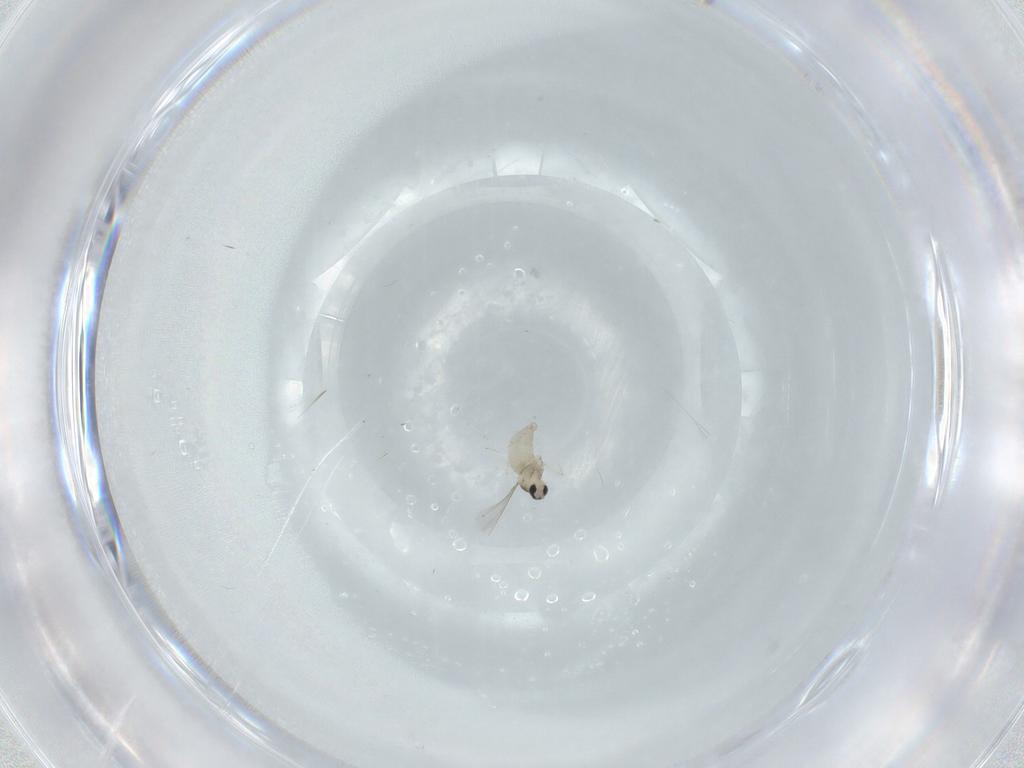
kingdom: Animalia
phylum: Arthropoda
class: Insecta
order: Diptera
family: Cecidomyiidae
